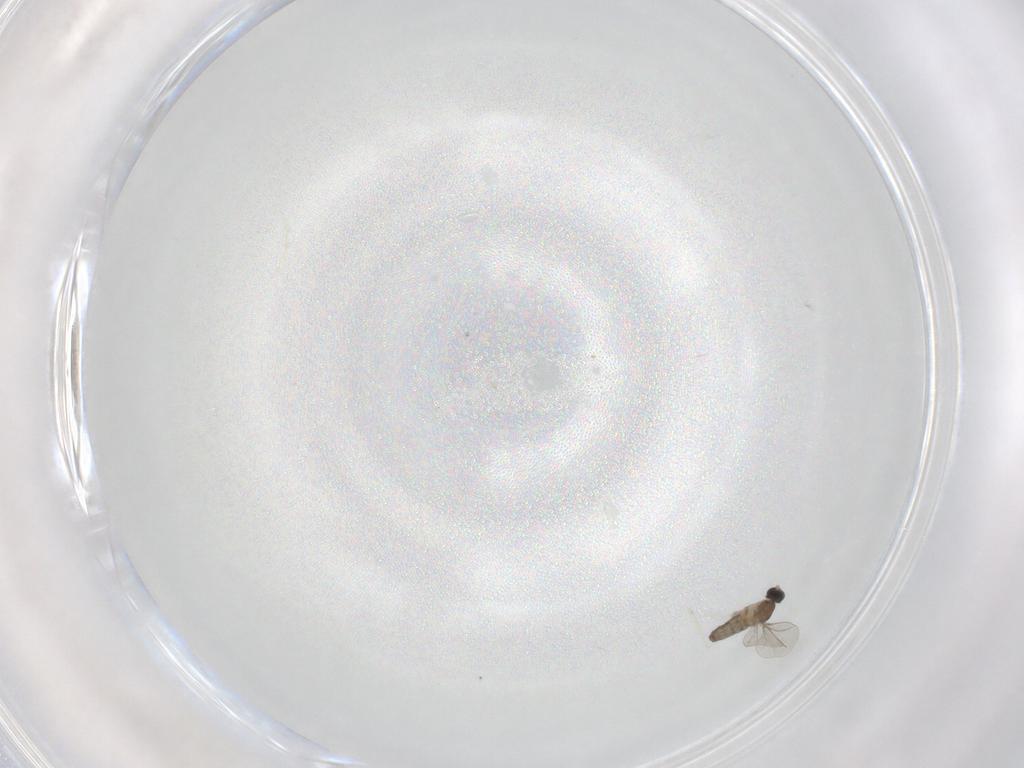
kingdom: Animalia
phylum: Arthropoda
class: Insecta
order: Diptera
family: Cecidomyiidae
